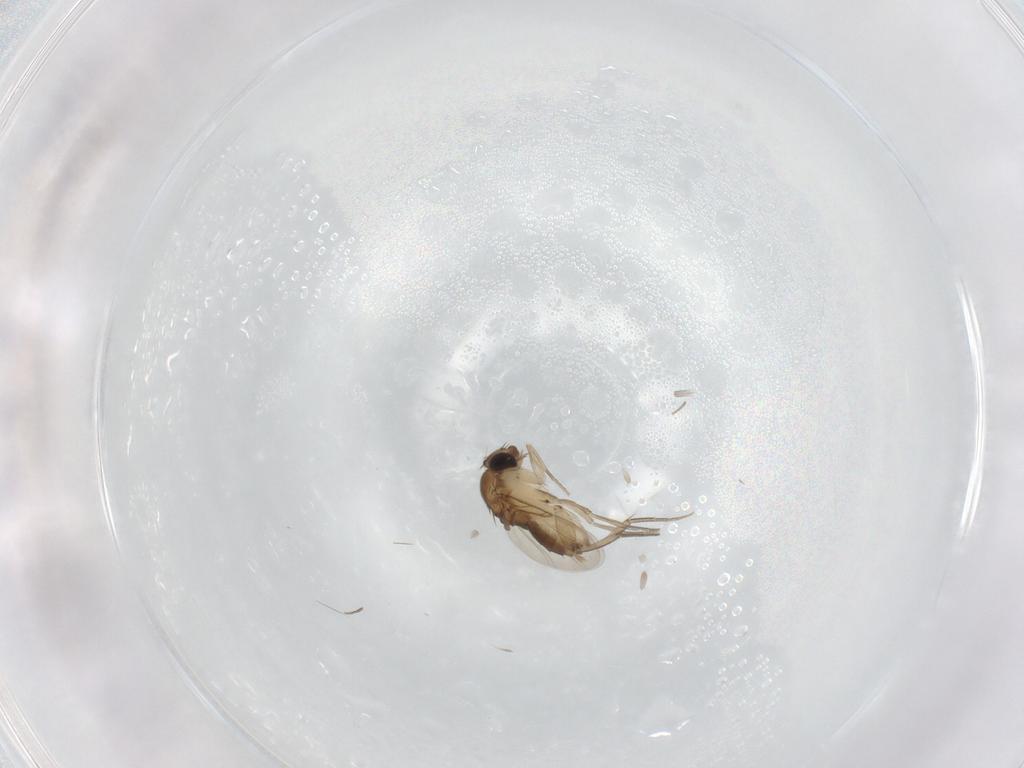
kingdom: Animalia
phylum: Arthropoda
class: Insecta
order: Diptera
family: Phoridae
